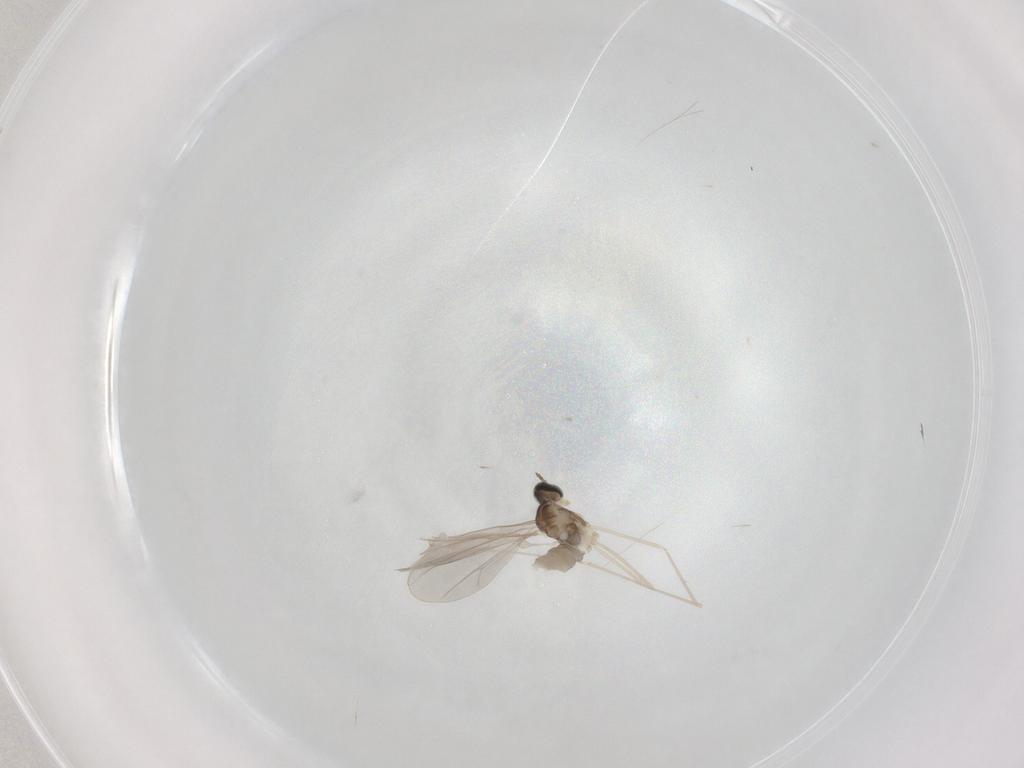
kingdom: Animalia
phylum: Arthropoda
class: Insecta
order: Diptera
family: Cecidomyiidae
